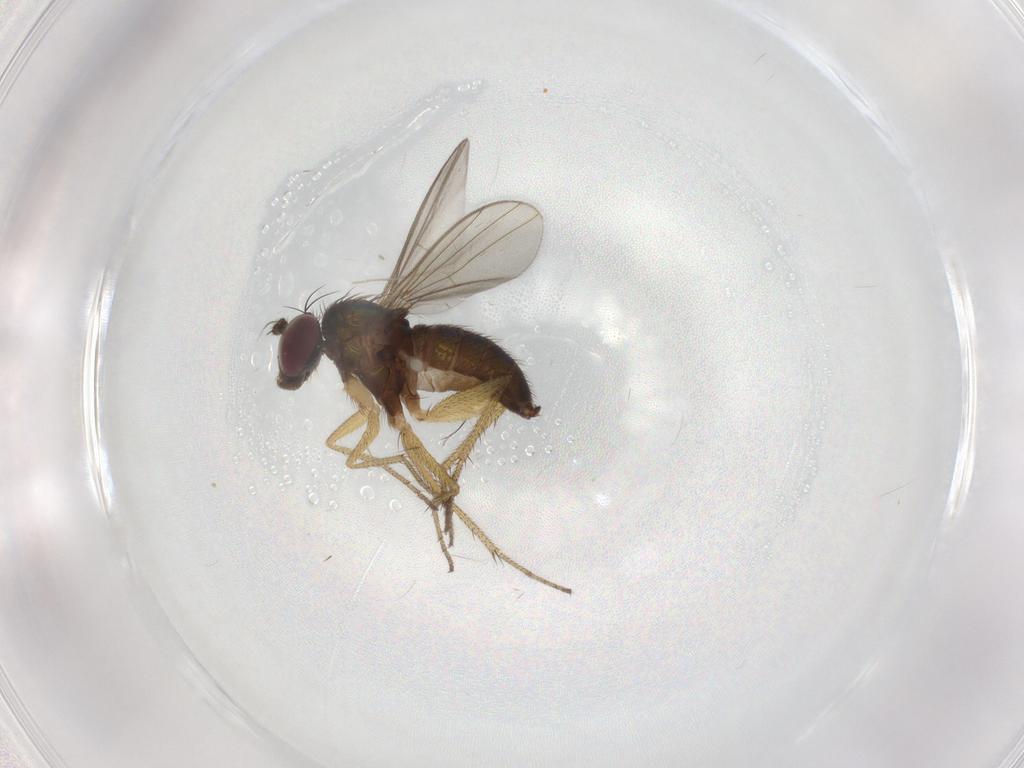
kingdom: Animalia
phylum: Arthropoda
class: Insecta
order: Diptera
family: Dolichopodidae
